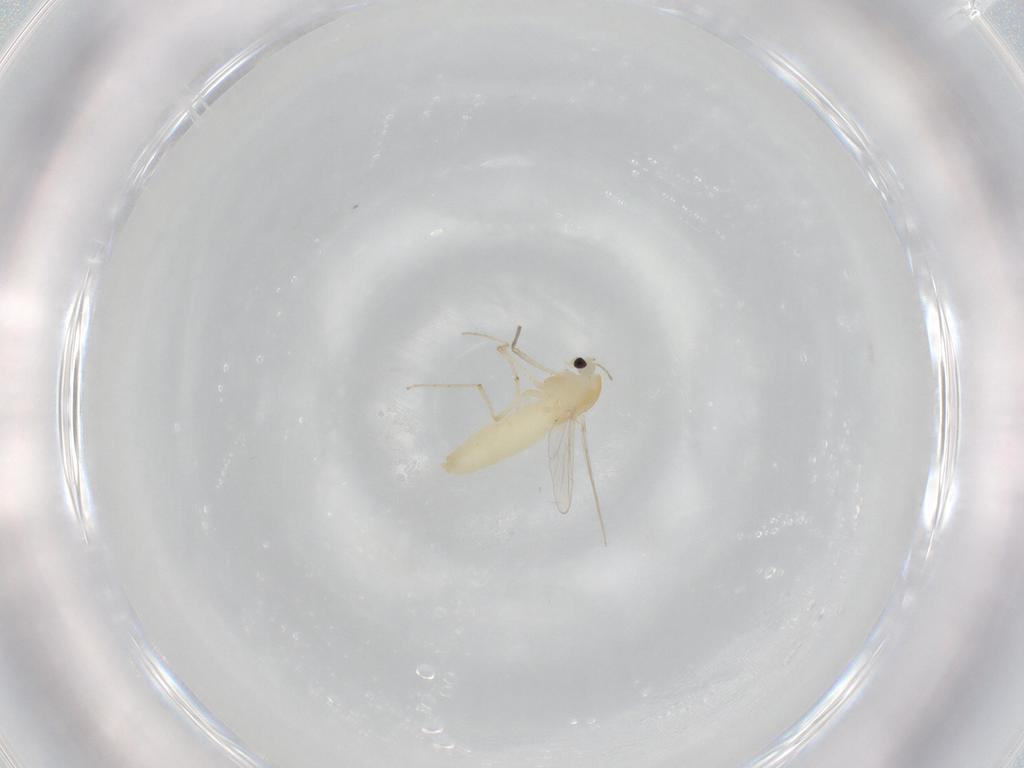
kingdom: Animalia
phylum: Arthropoda
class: Insecta
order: Diptera
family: Chironomidae
